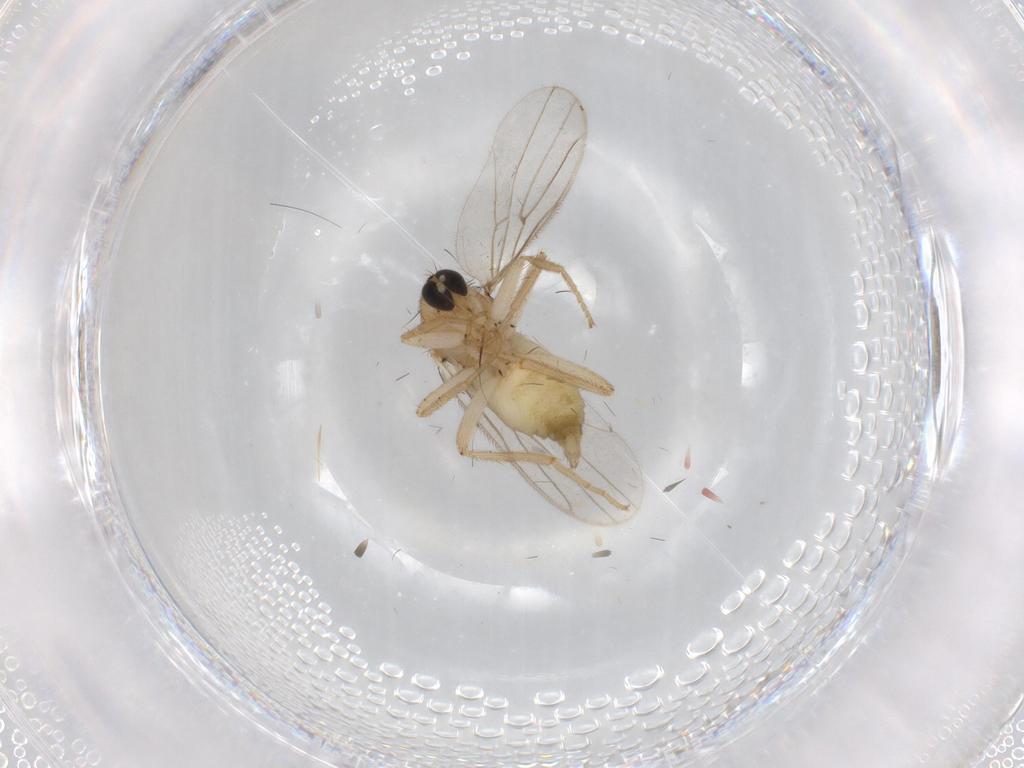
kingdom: Animalia
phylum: Arthropoda
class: Insecta
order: Diptera
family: Hybotidae
